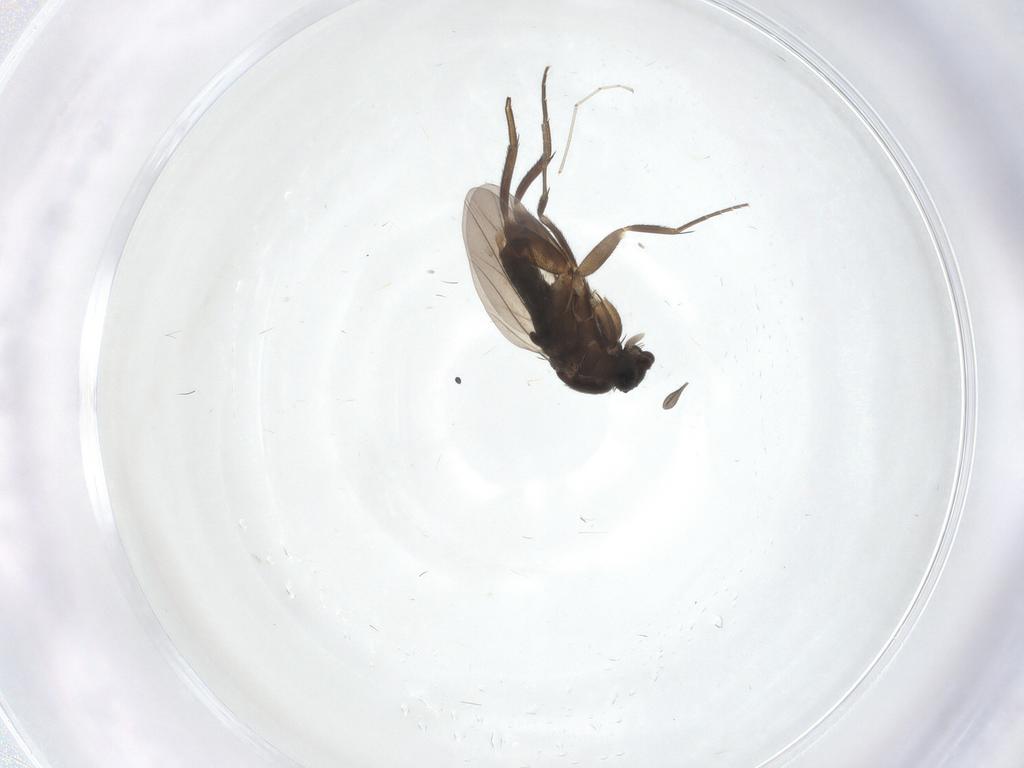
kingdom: Animalia
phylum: Arthropoda
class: Insecta
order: Diptera
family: Phoridae
